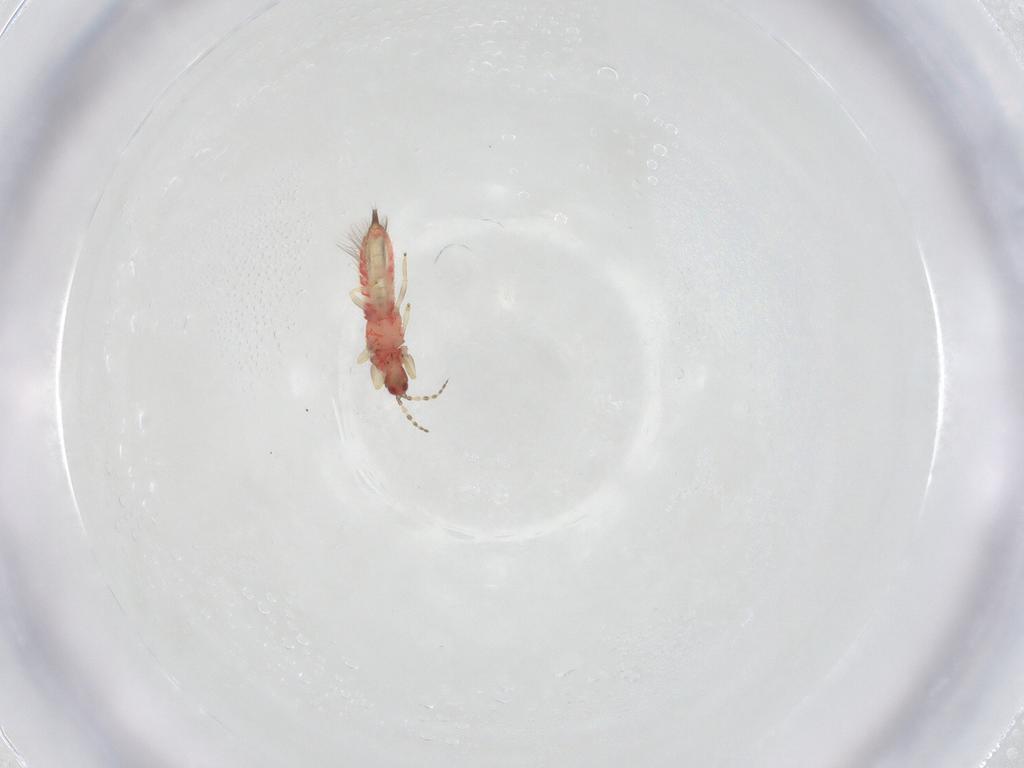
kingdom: Animalia
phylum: Arthropoda
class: Insecta
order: Thysanoptera
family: Phlaeothripidae
